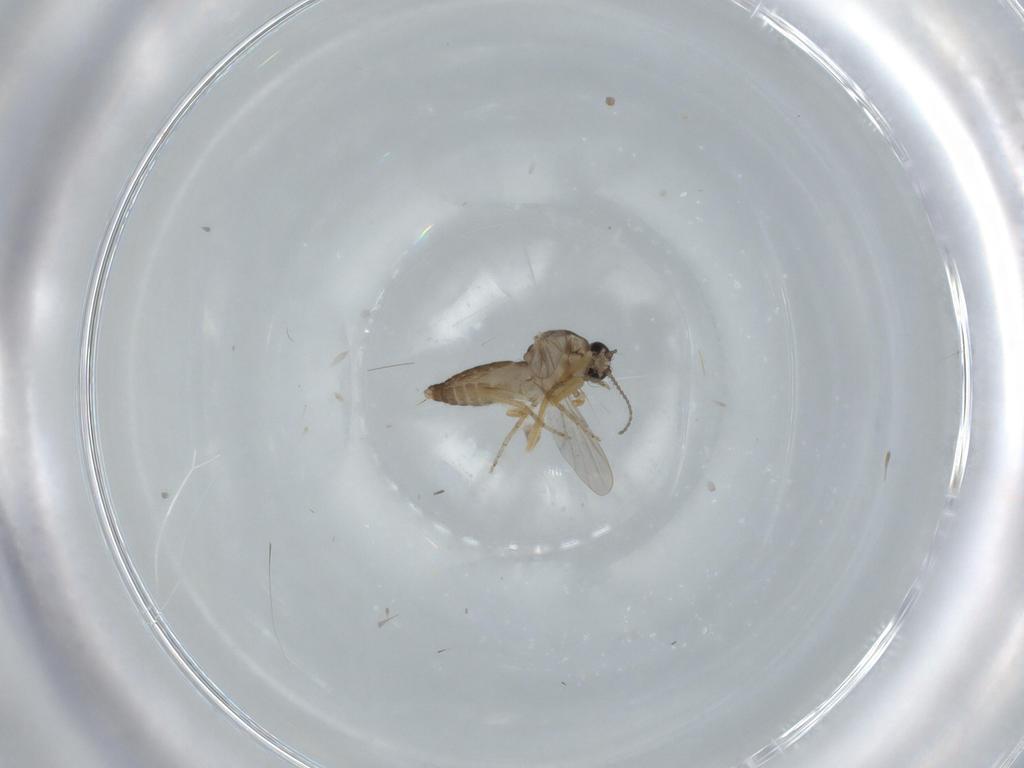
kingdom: Animalia
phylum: Arthropoda
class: Insecta
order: Diptera
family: Ceratopogonidae
